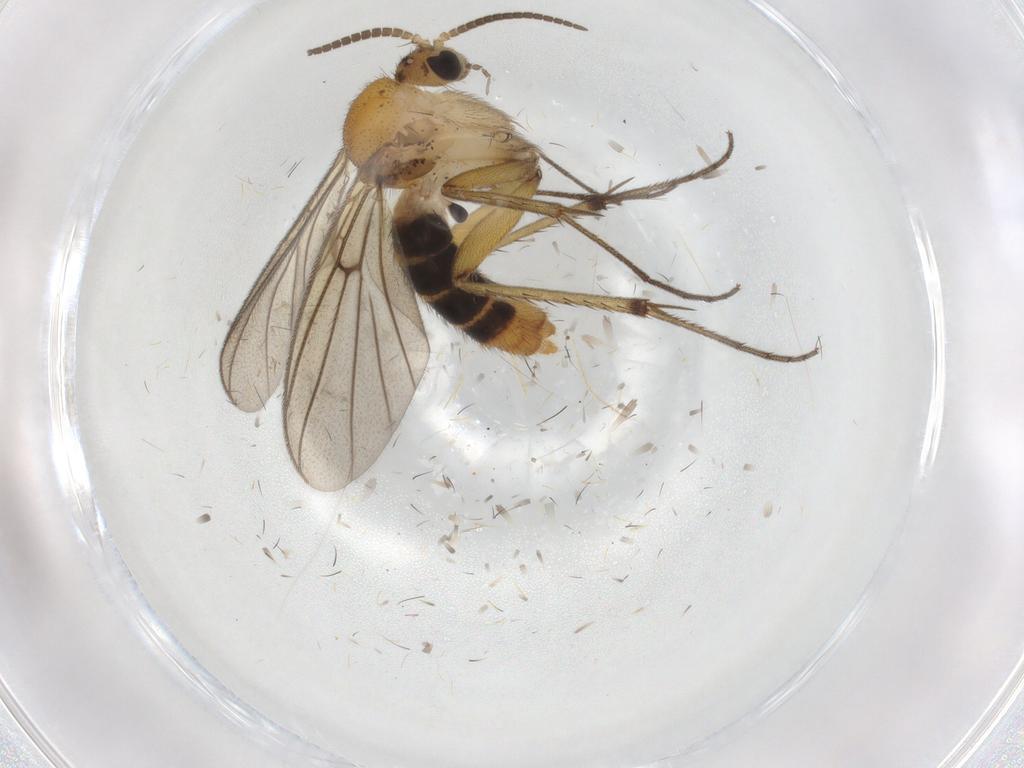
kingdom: Animalia
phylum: Arthropoda
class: Insecta
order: Diptera
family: Mycetophilidae
